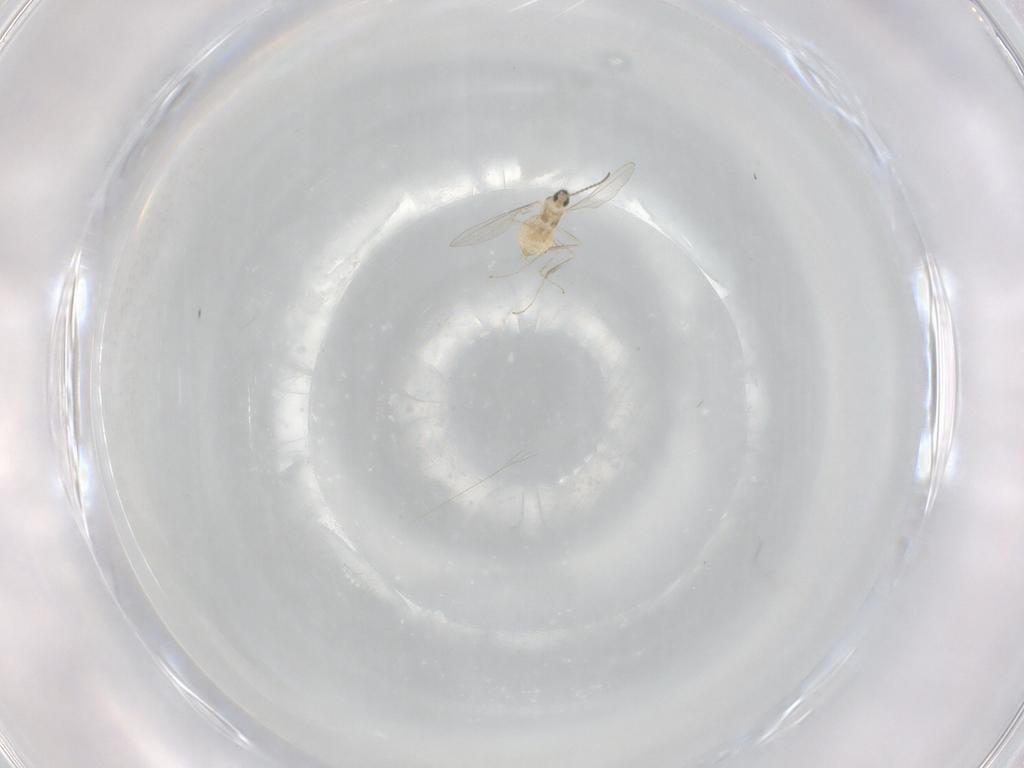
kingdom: Animalia
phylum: Arthropoda
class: Insecta
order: Diptera
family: Cecidomyiidae
